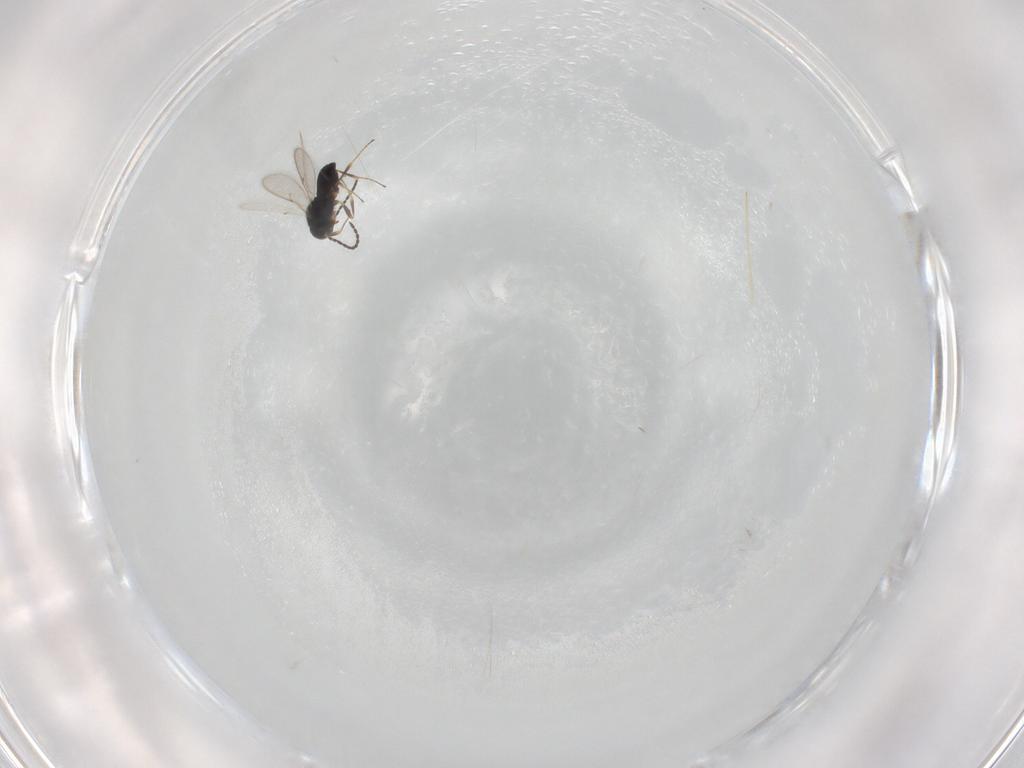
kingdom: Animalia
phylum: Arthropoda
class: Insecta
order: Hymenoptera
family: Scelionidae
